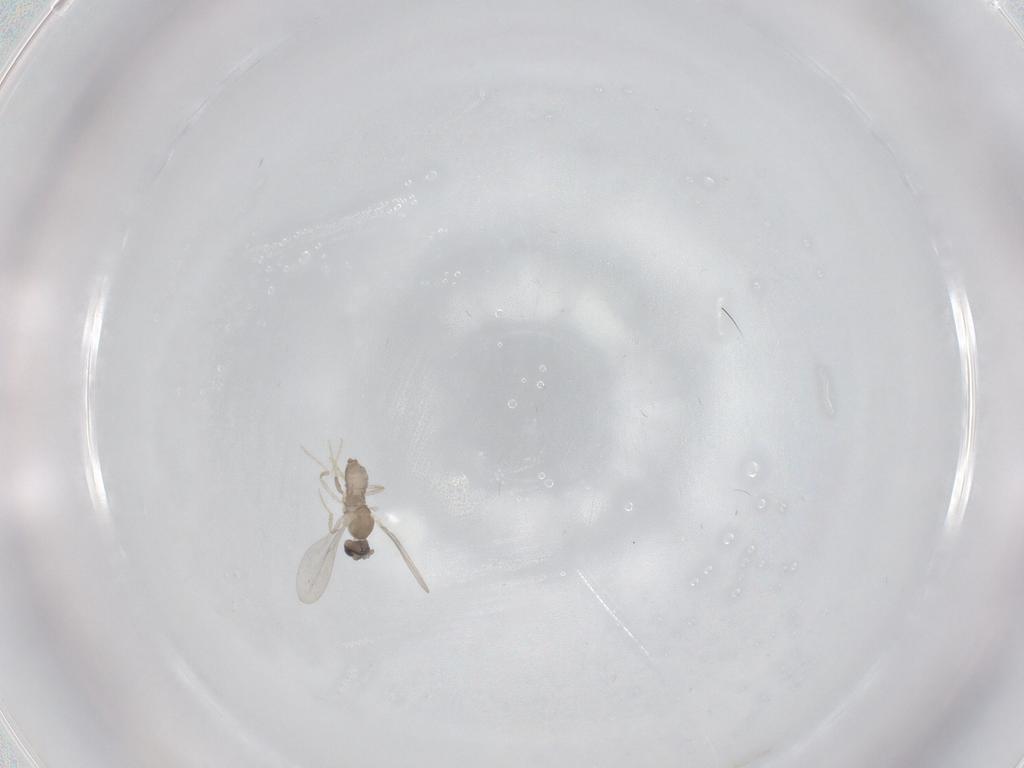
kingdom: Animalia
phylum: Arthropoda
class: Insecta
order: Diptera
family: Cecidomyiidae
